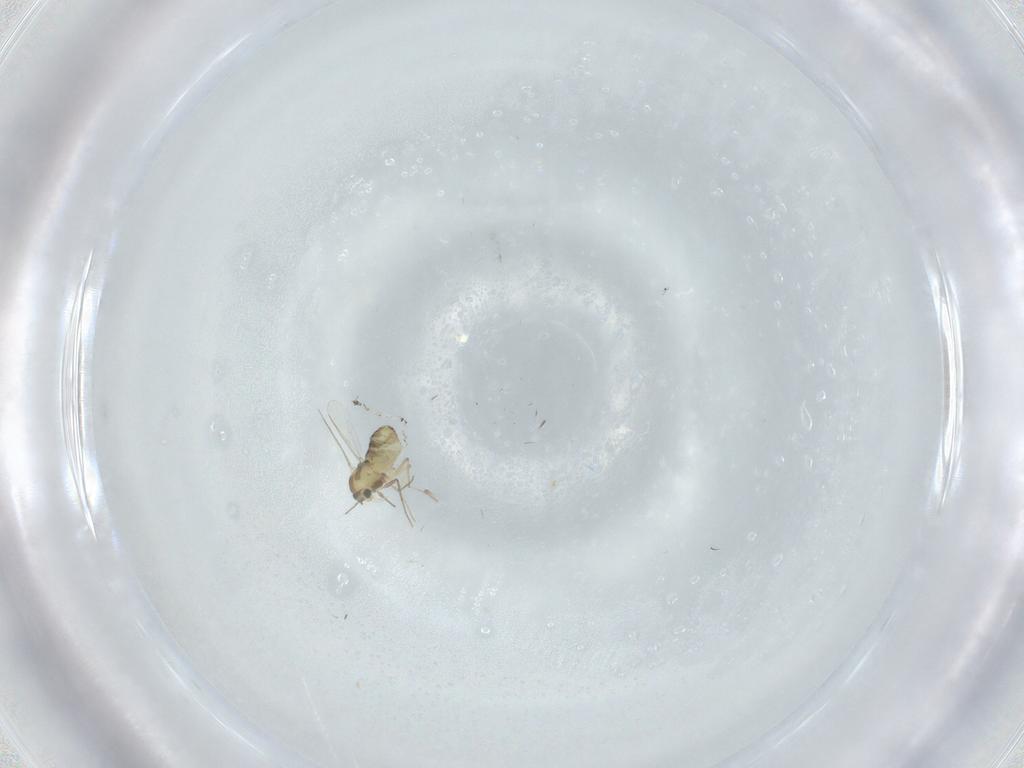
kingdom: Animalia
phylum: Arthropoda
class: Insecta
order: Diptera
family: Chironomidae
